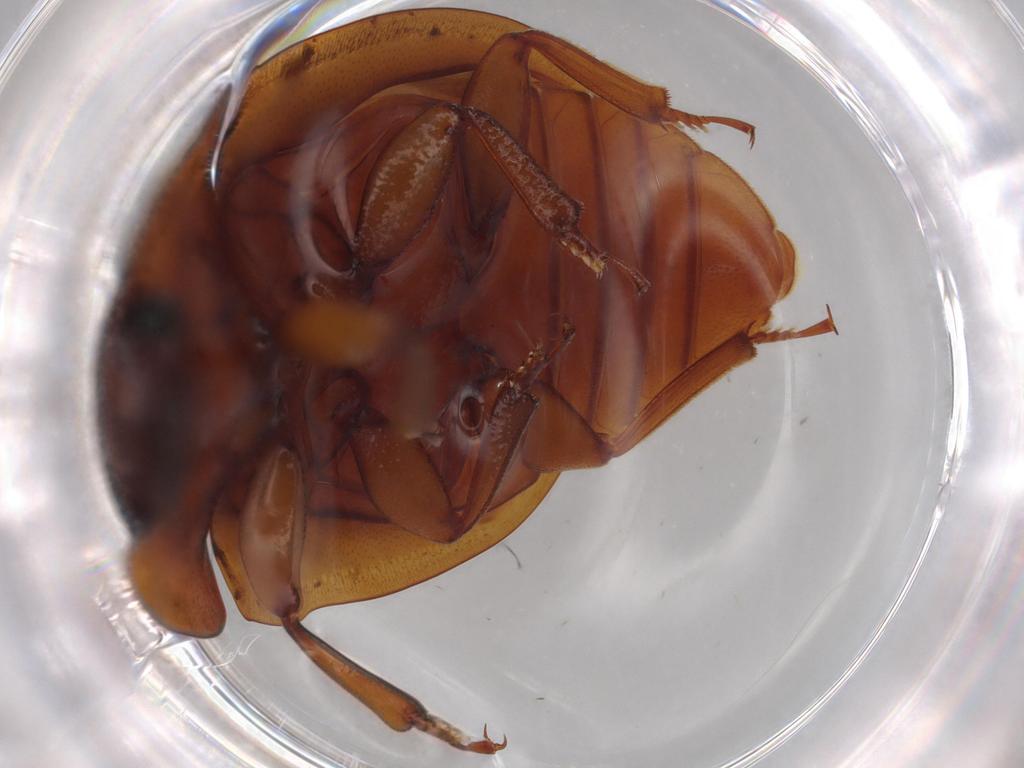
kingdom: Animalia
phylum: Arthropoda
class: Insecta
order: Coleoptera
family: Nitidulidae
